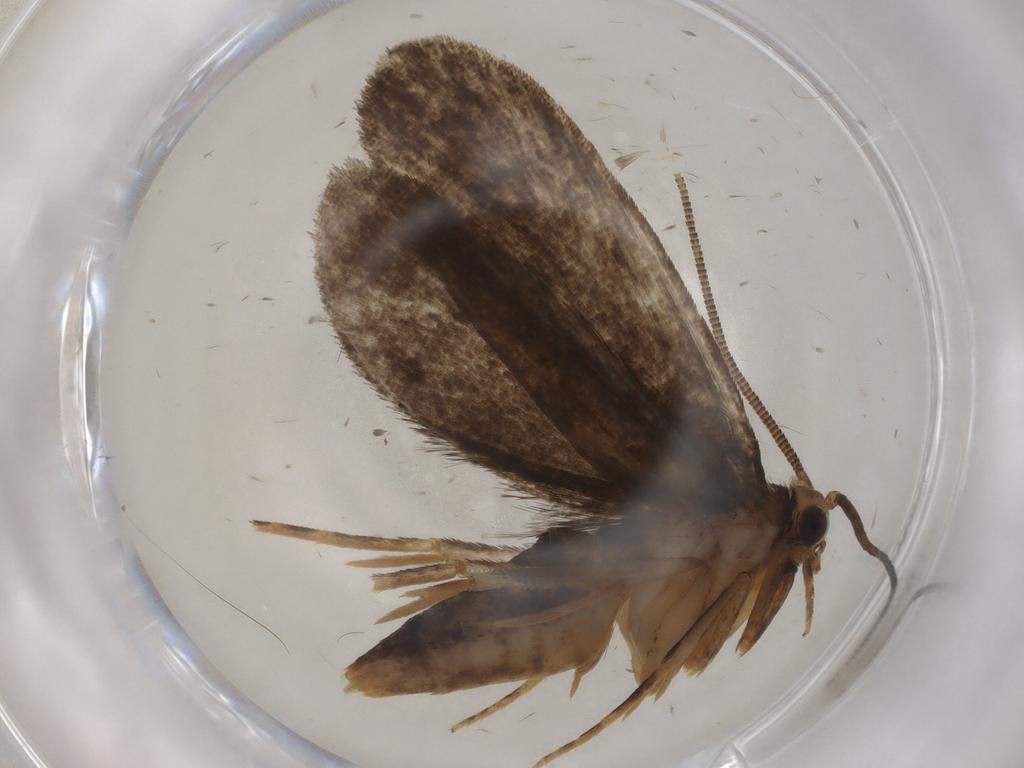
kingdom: Animalia
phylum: Arthropoda
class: Insecta
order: Lepidoptera
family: Tineidae
